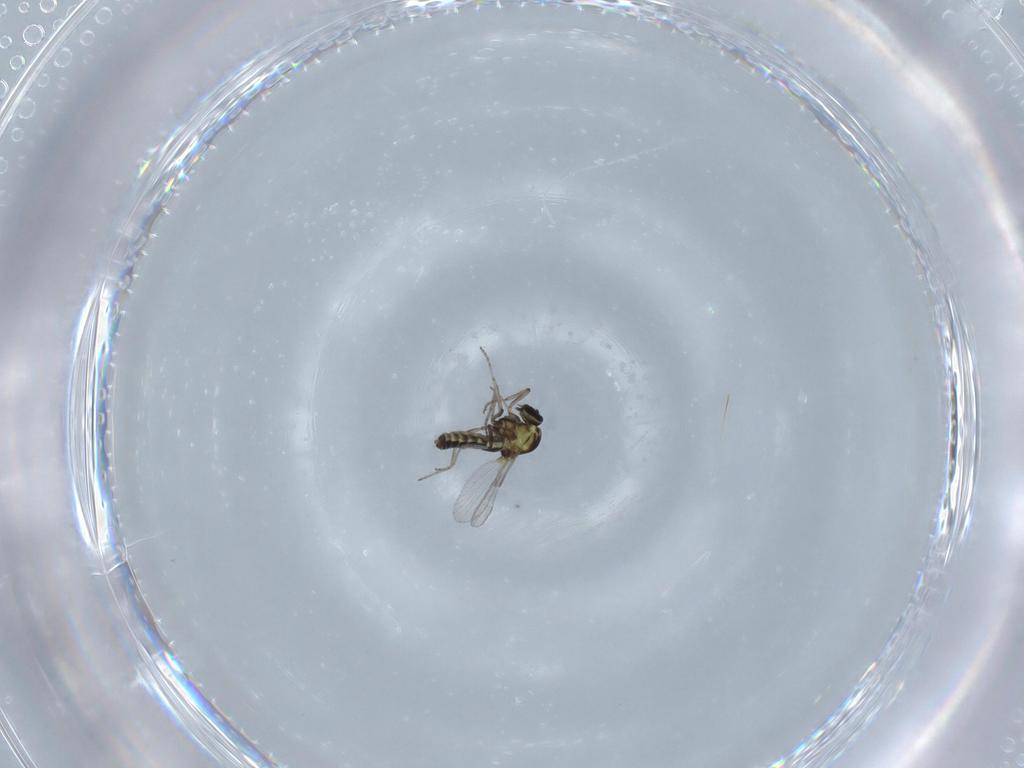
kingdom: Animalia
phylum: Arthropoda
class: Insecta
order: Diptera
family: Ceratopogonidae
